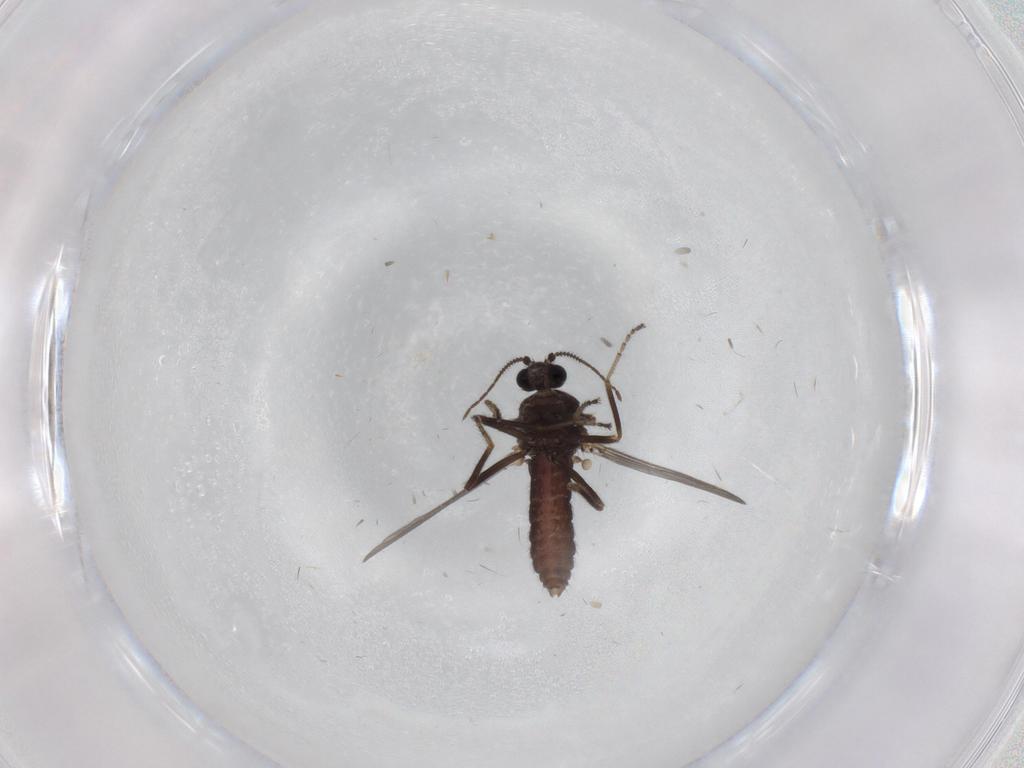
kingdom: Animalia
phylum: Arthropoda
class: Insecta
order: Diptera
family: Ceratopogonidae
